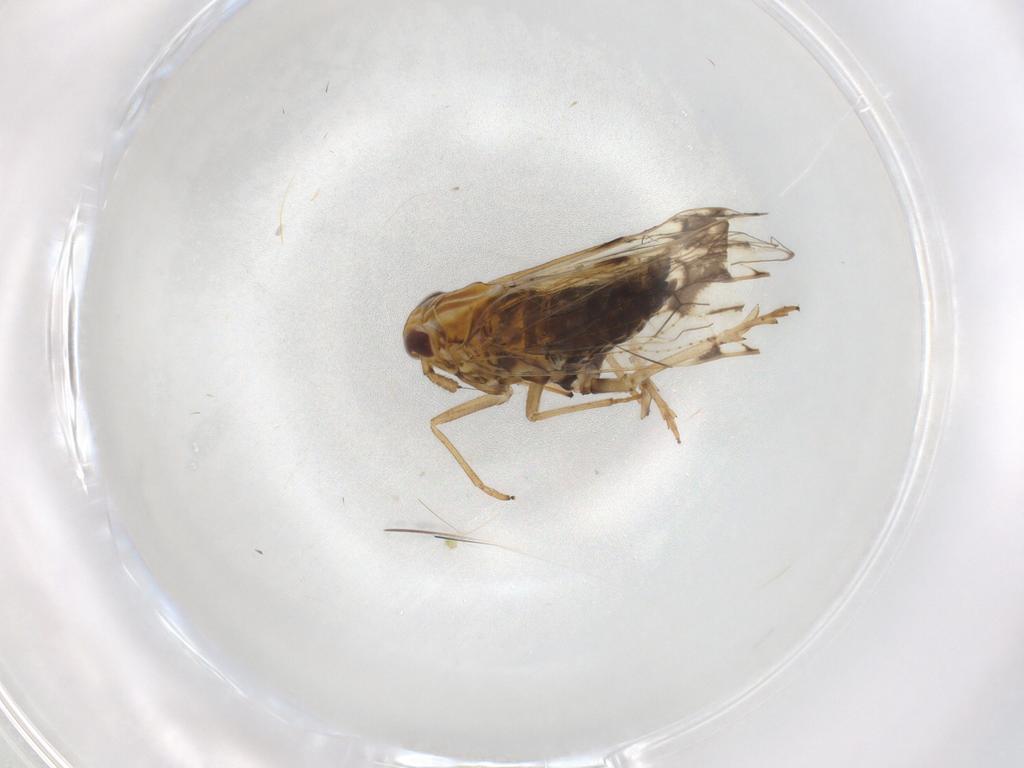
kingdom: Animalia
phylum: Arthropoda
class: Insecta
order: Hemiptera
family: Delphacidae
